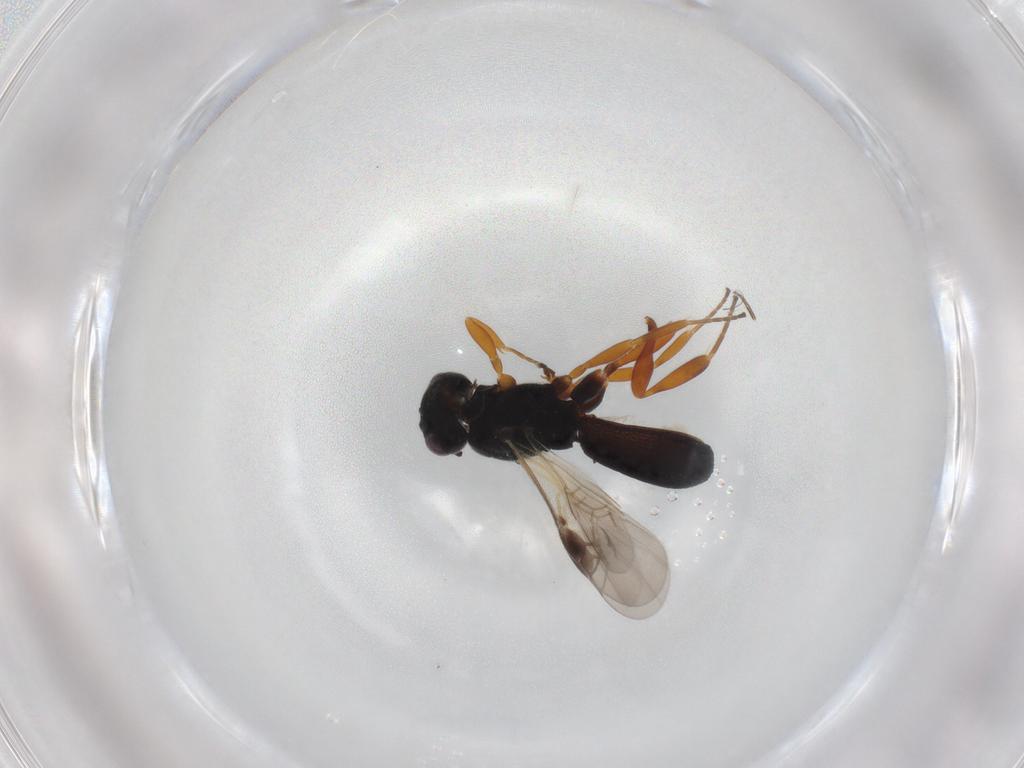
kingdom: Animalia
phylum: Arthropoda
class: Insecta
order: Hymenoptera
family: Braconidae
